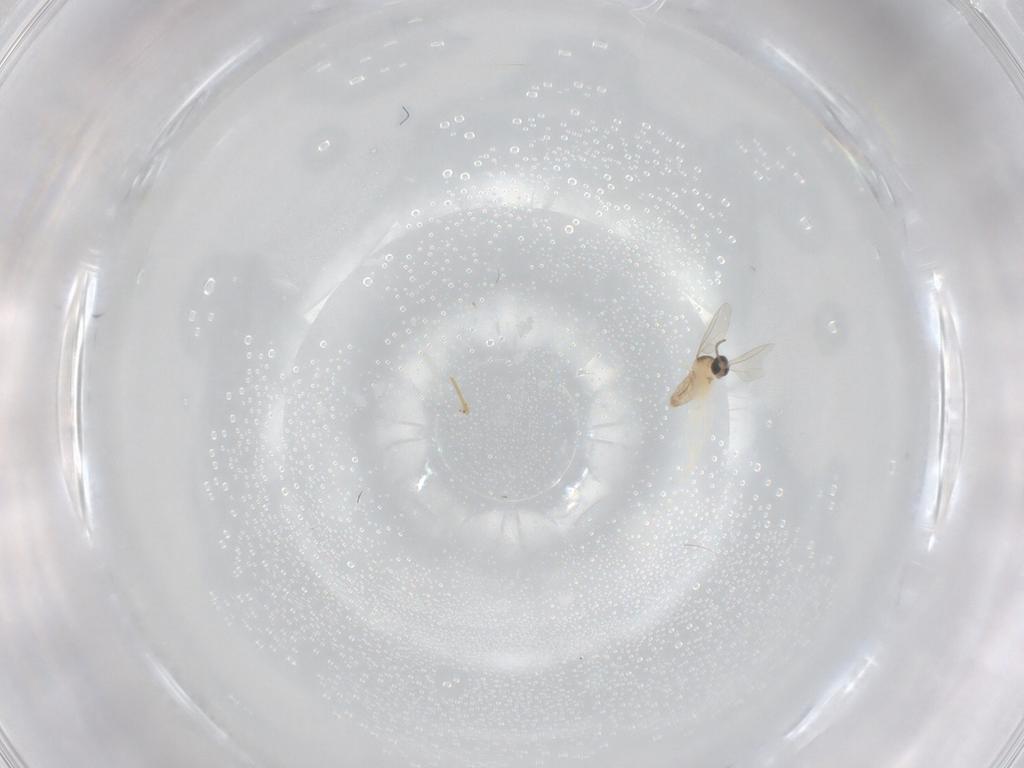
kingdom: Animalia
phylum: Arthropoda
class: Insecta
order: Diptera
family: Cecidomyiidae
